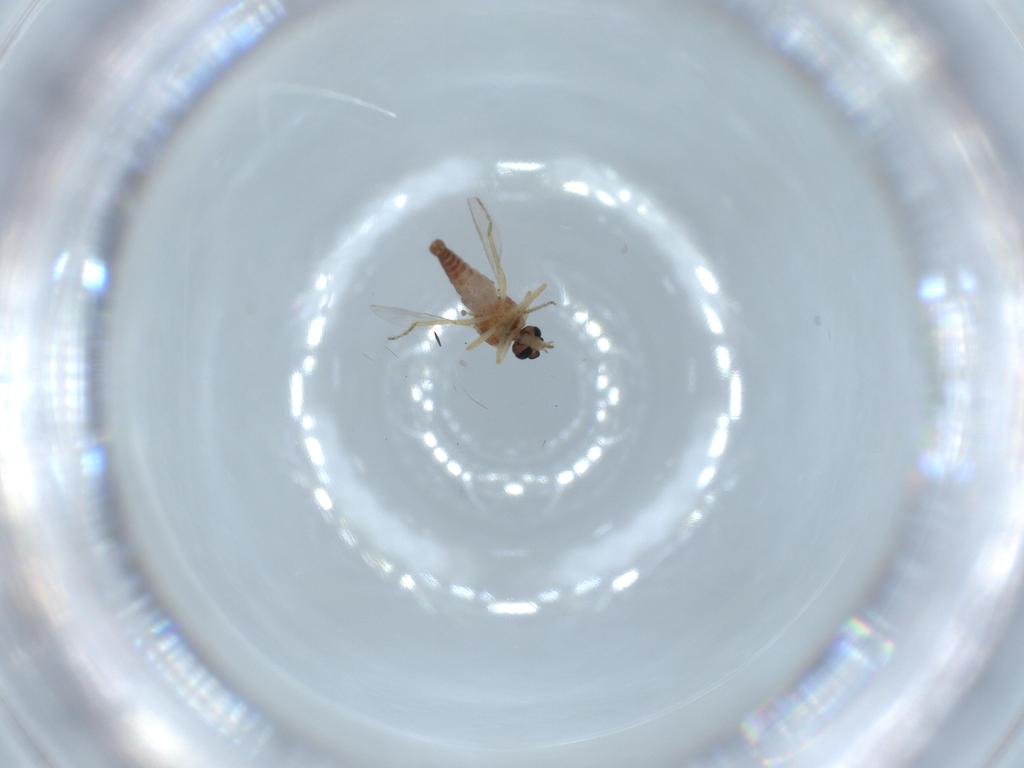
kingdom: Animalia
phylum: Arthropoda
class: Insecta
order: Diptera
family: Ceratopogonidae
